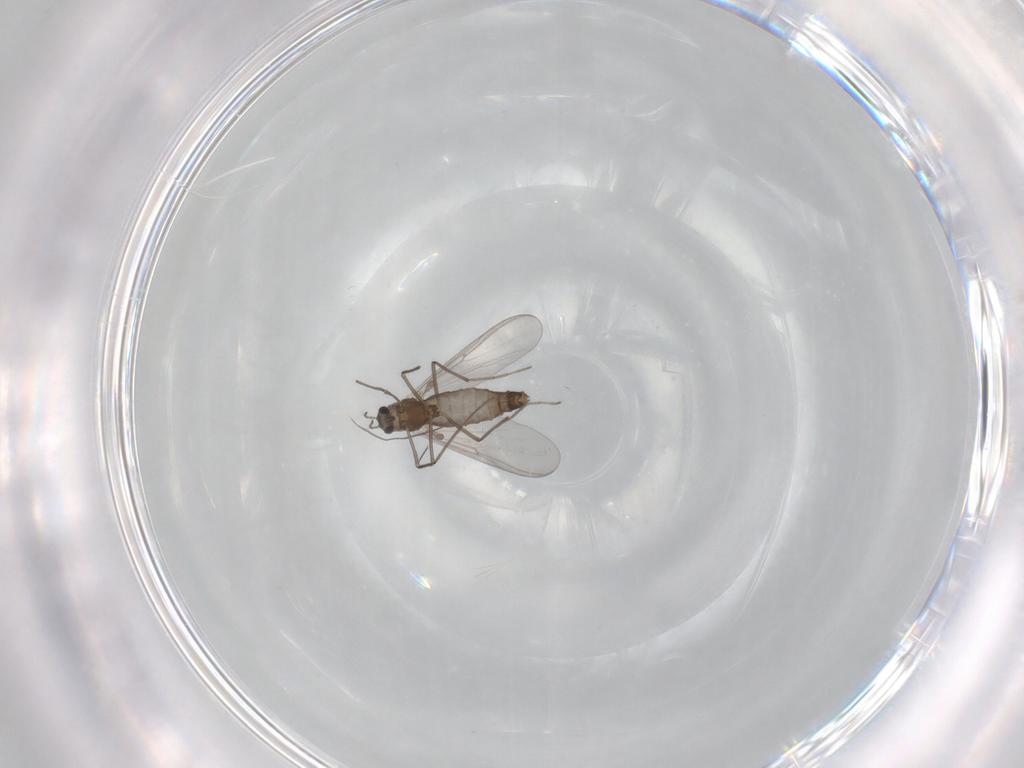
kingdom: Animalia
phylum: Arthropoda
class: Insecta
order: Diptera
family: Chironomidae
